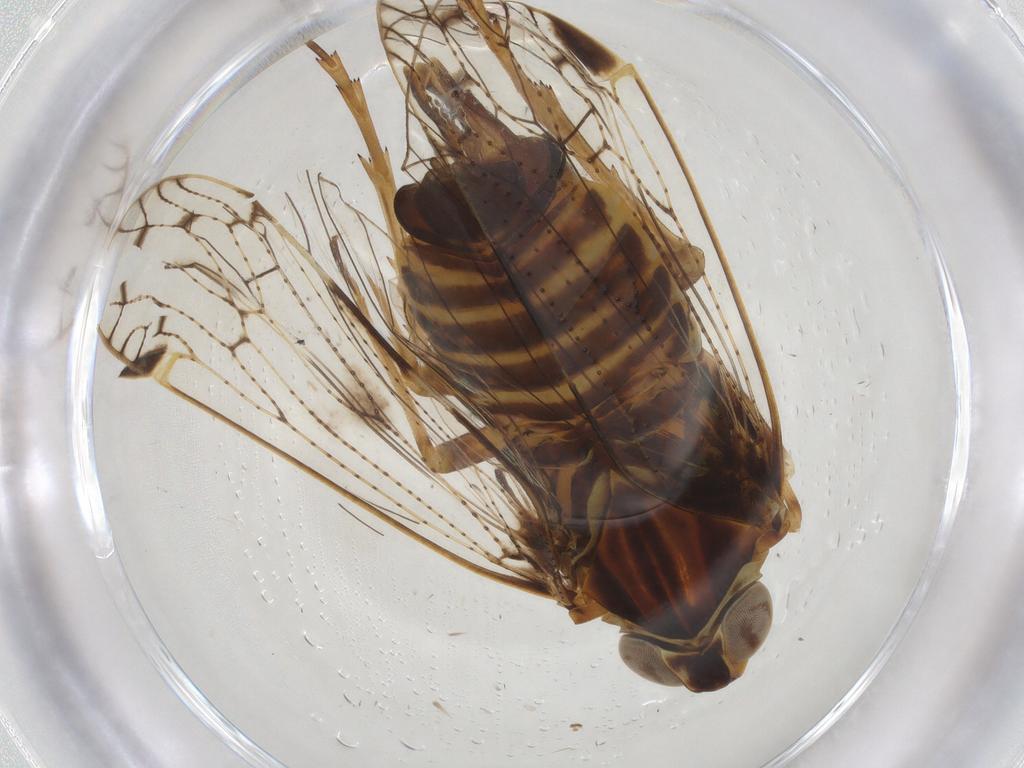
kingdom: Animalia
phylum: Arthropoda
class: Insecta
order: Hemiptera
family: Cixiidae
